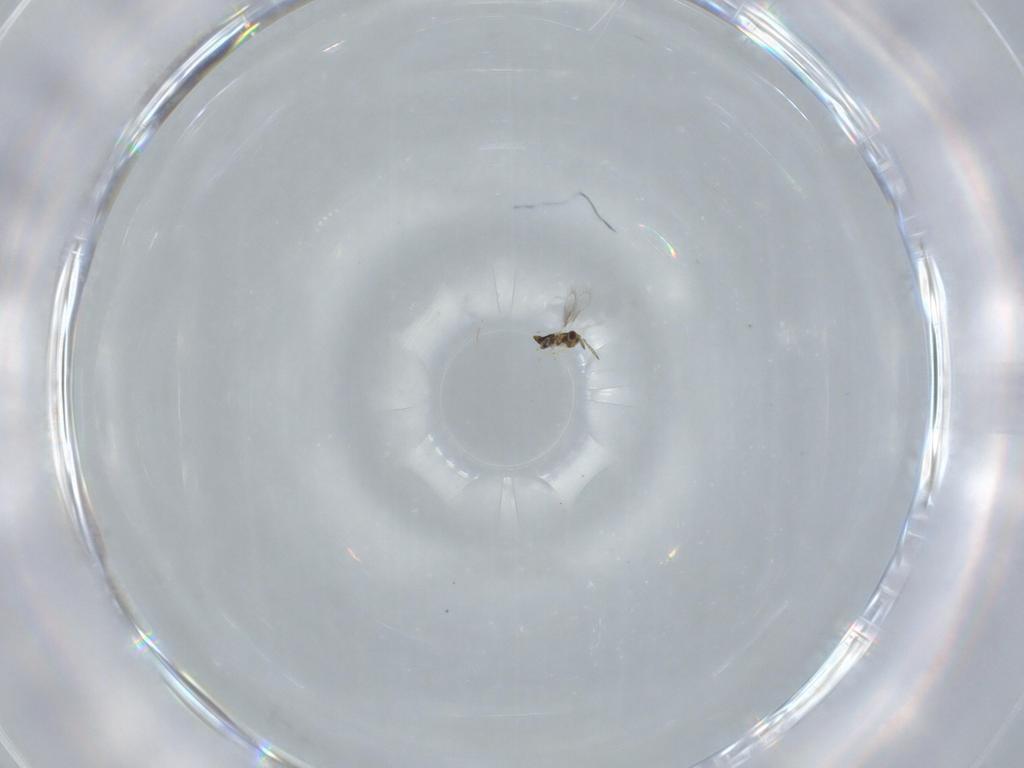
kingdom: Animalia
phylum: Arthropoda
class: Insecta
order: Hymenoptera
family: Aphelinidae
